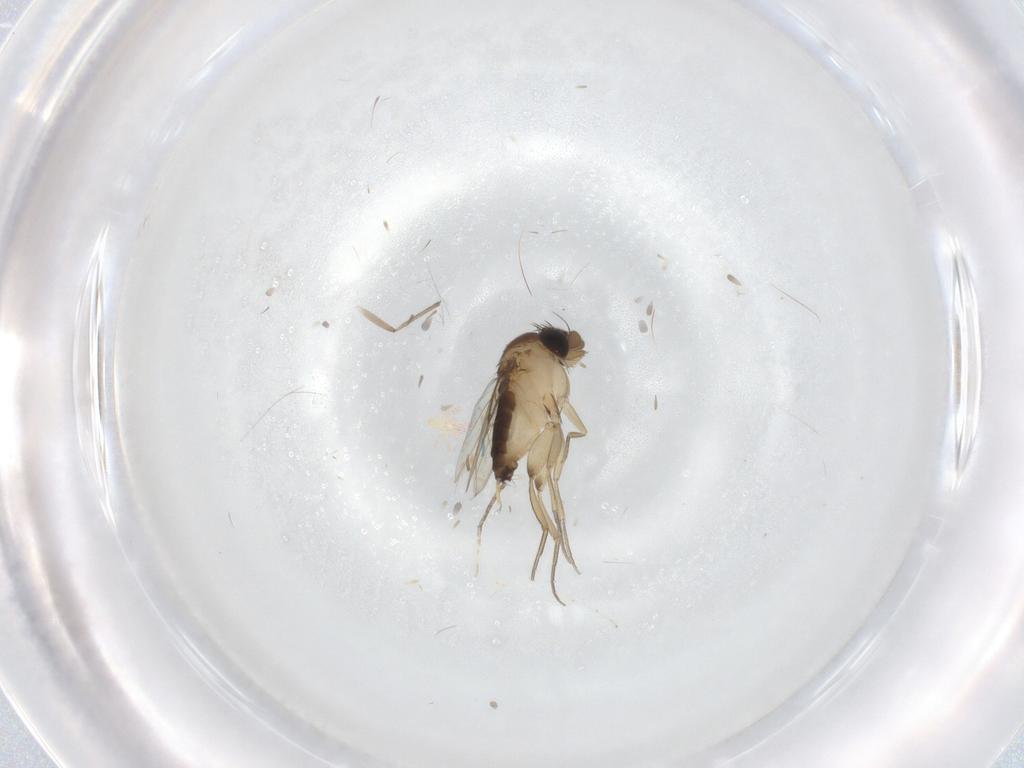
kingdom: Animalia
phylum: Arthropoda
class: Insecta
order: Diptera
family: Phoridae
